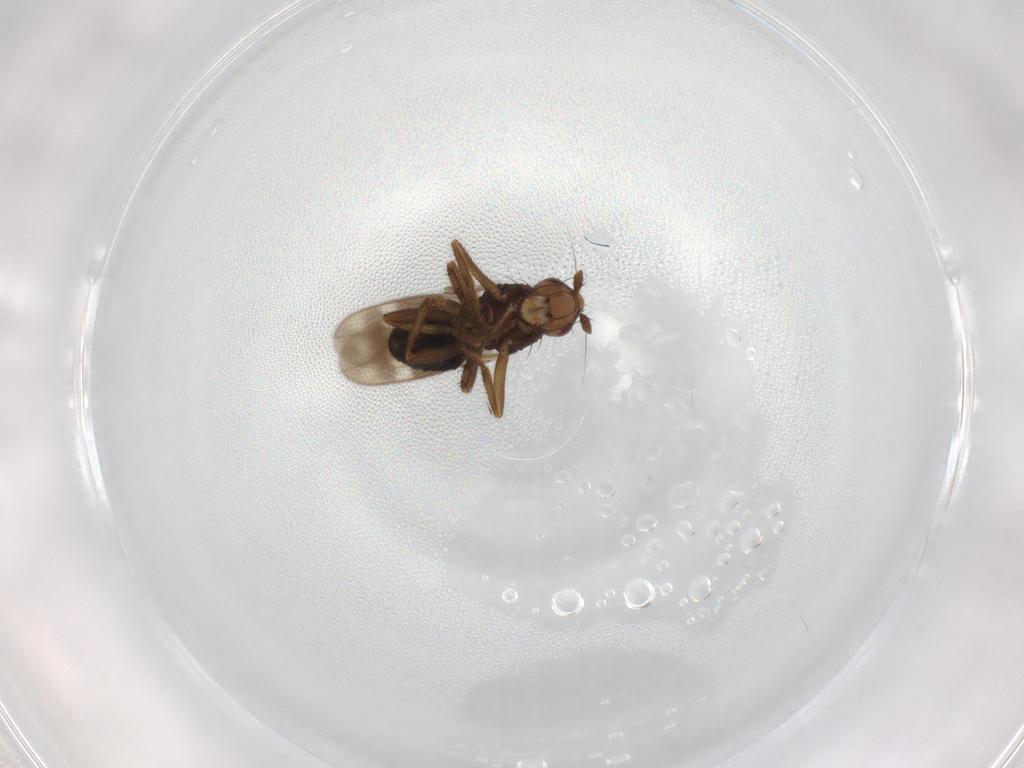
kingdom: Animalia
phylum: Arthropoda
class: Insecta
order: Diptera
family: Sphaeroceridae
